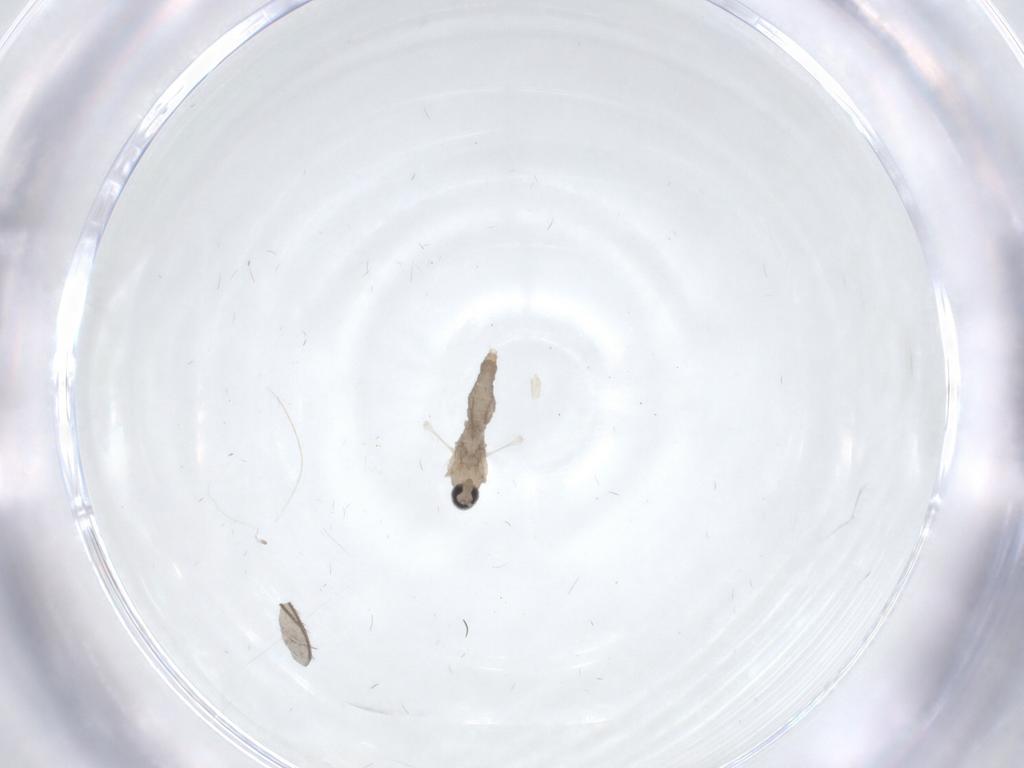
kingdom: Animalia
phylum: Arthropoda
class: Insecta
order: Diptera
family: Cecidomyiidae
